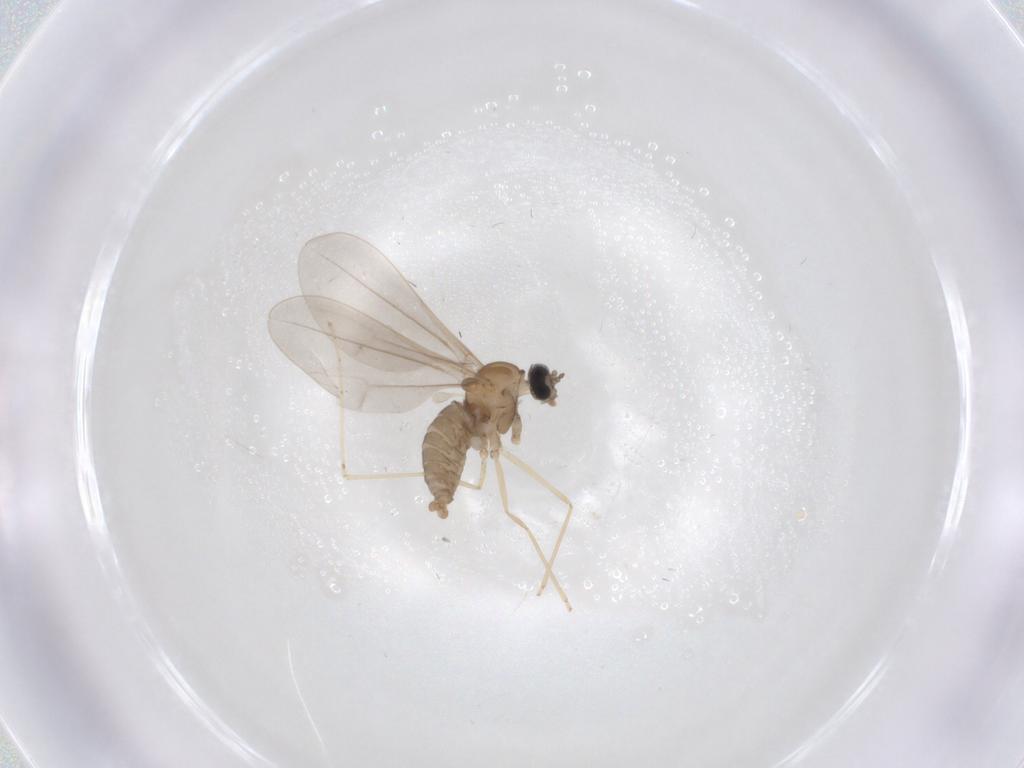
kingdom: Animalia
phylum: Arthropoda
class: Insecta
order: Diptera
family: Cecidomyiidae
